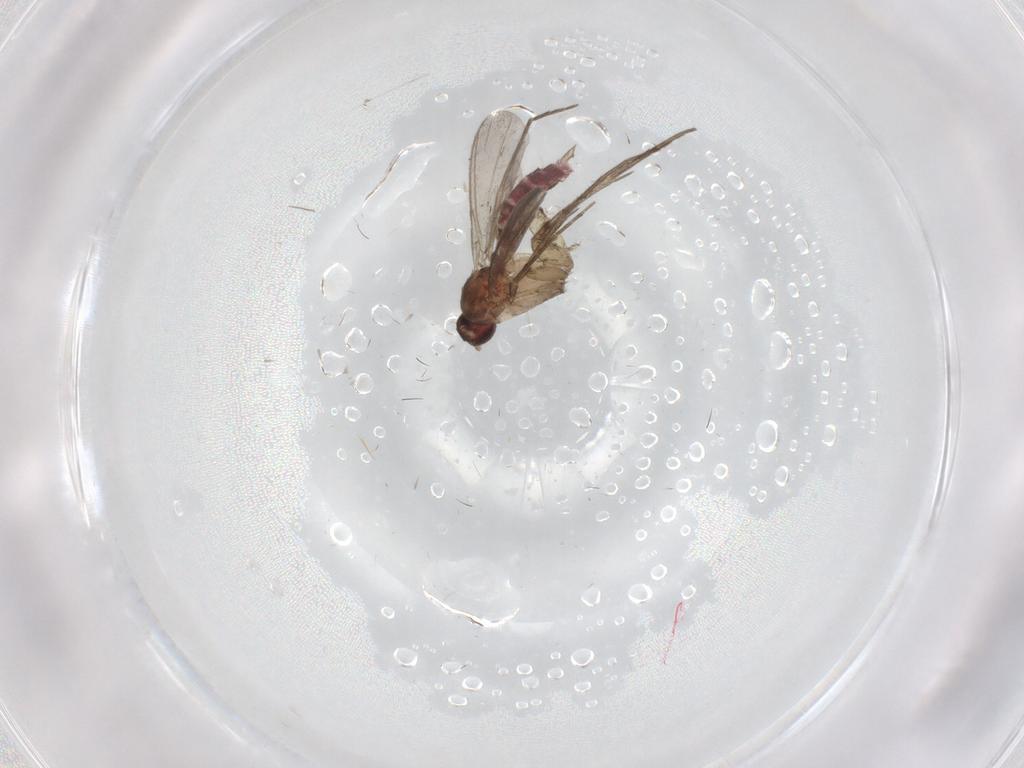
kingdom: Animalia
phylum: Arthropoda
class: Insecta
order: Diptera
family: Mycetophilidae
